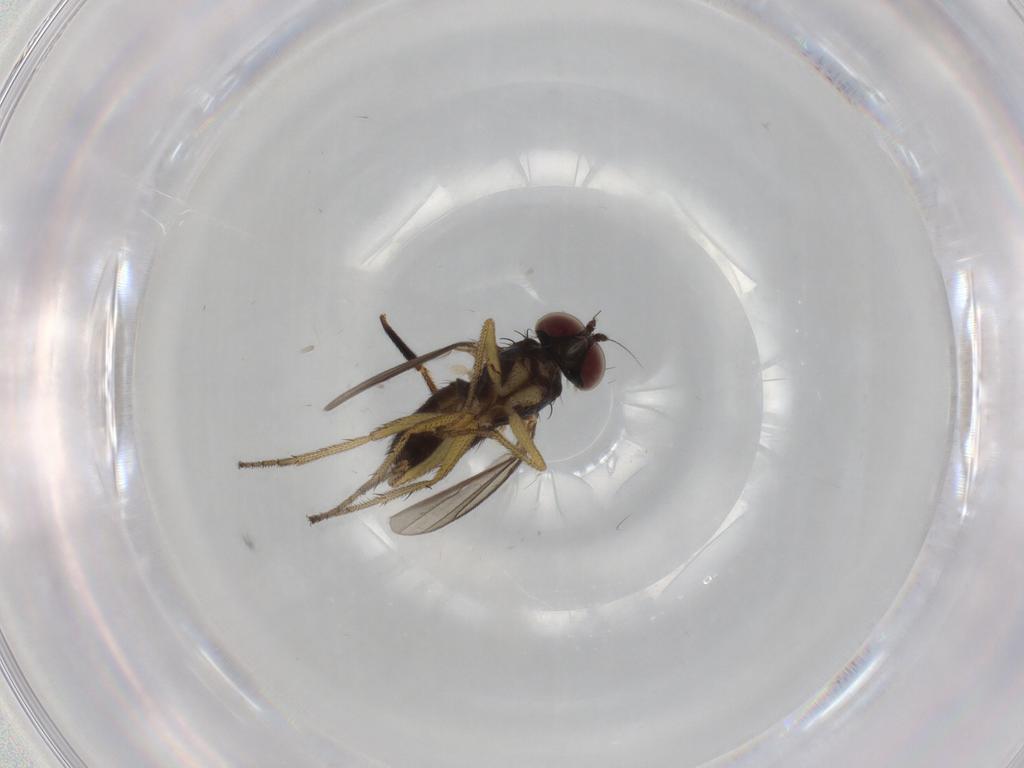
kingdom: Animalia
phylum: Arthropoda
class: Insecta
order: Diptera
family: Dolichopodidae
